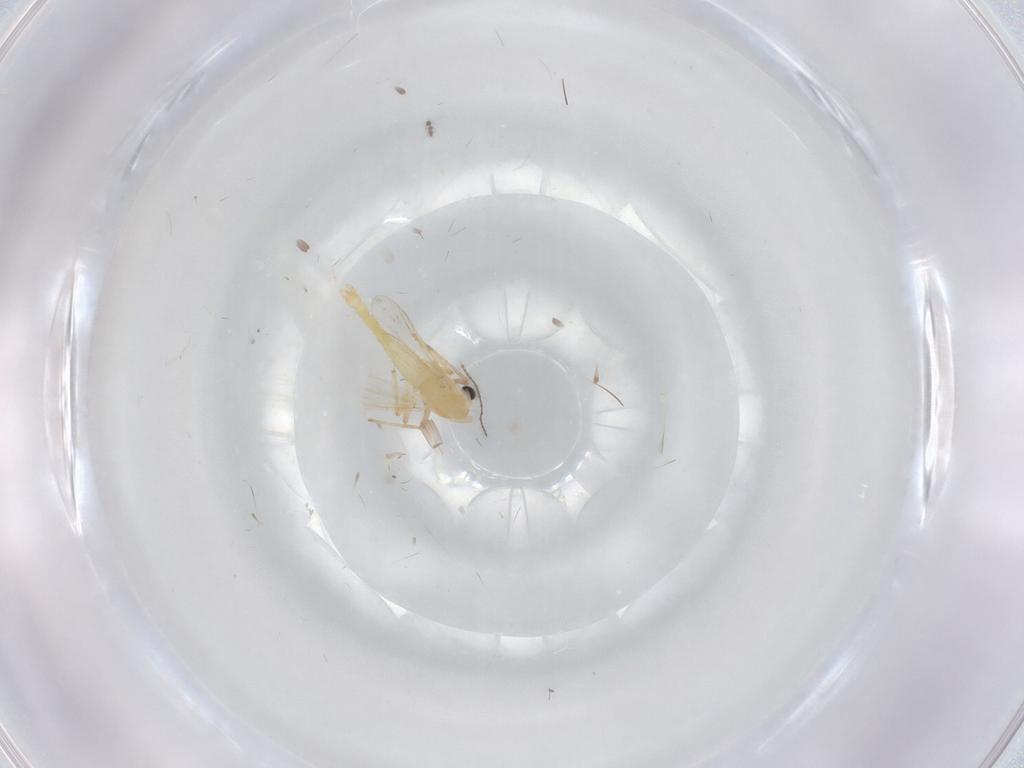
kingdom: Animalia
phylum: Arthropoda
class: Insecta
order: Diptera
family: Chironomidae
